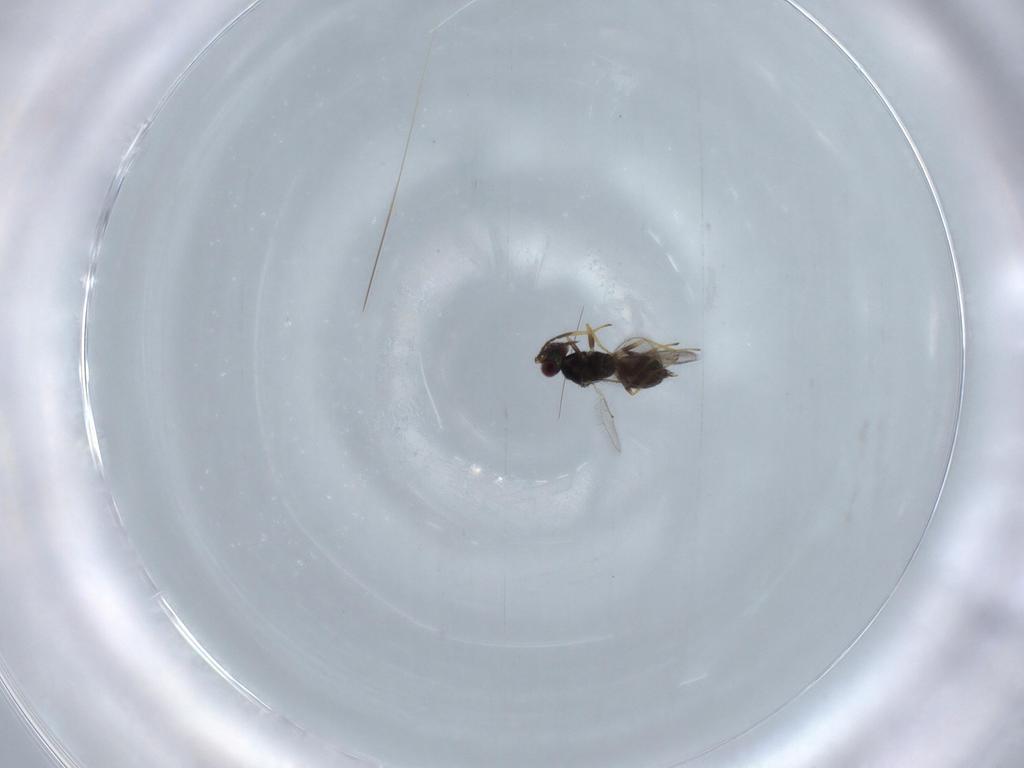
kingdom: Animalia
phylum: Arthropoda
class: Insecta
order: Hymenoptera
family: Eulophidae
